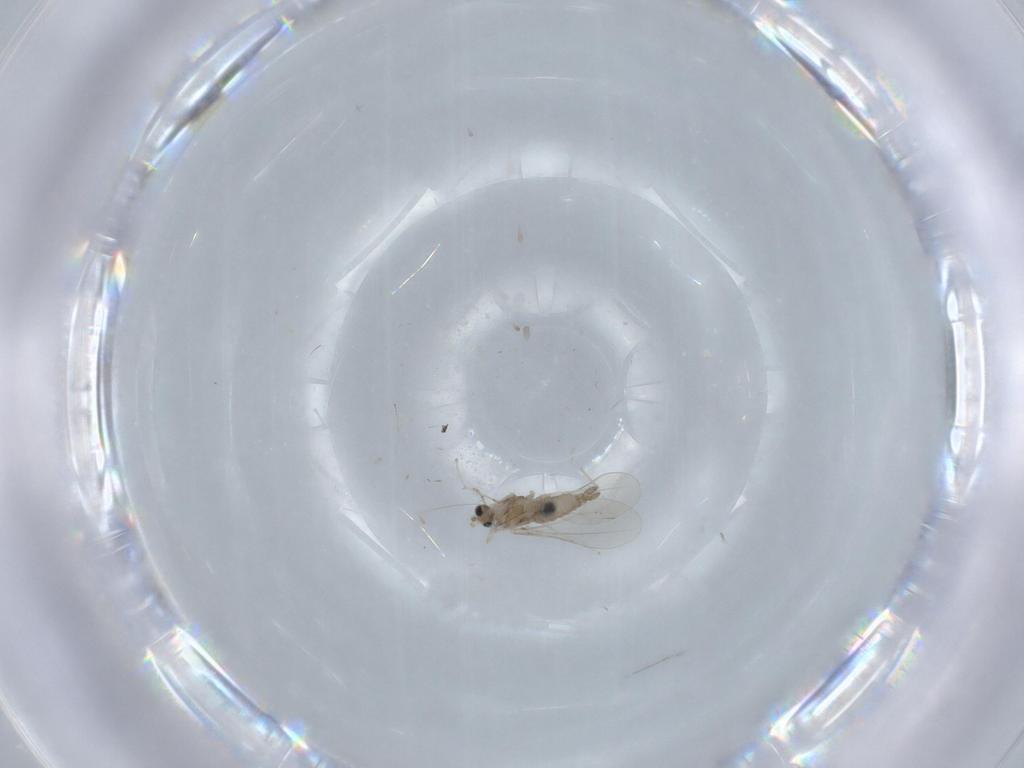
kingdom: Animalia
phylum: Arthropoda
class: Insecta
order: Diptera
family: Cecidomyiidae
